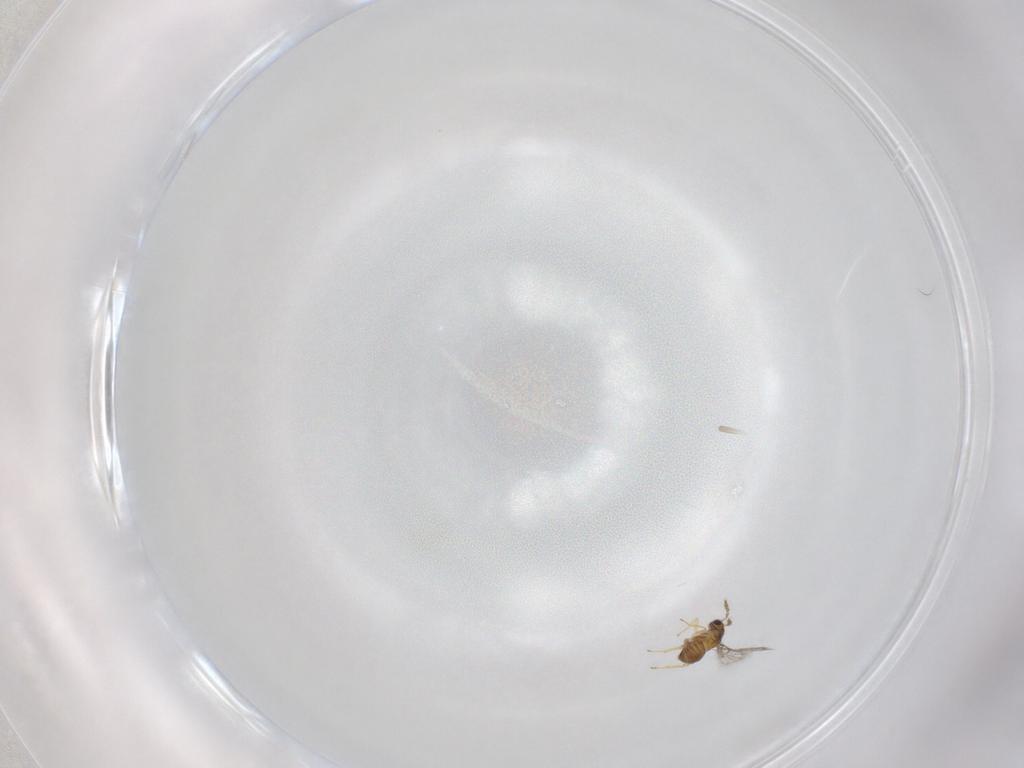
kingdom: Animalia
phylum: Arthropoda
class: Insecta
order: Hymenoptera
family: Trichogrammatidae
